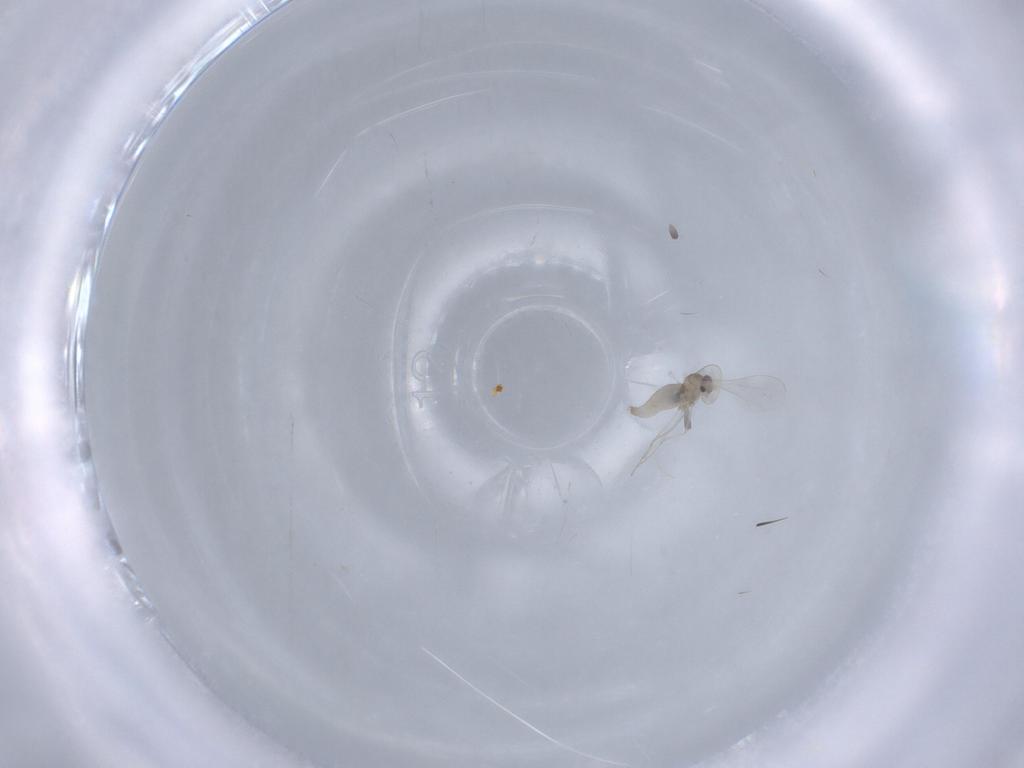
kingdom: Animalia
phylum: Arthropoda
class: Insecta
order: Diptera
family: Cecidomyiidae
